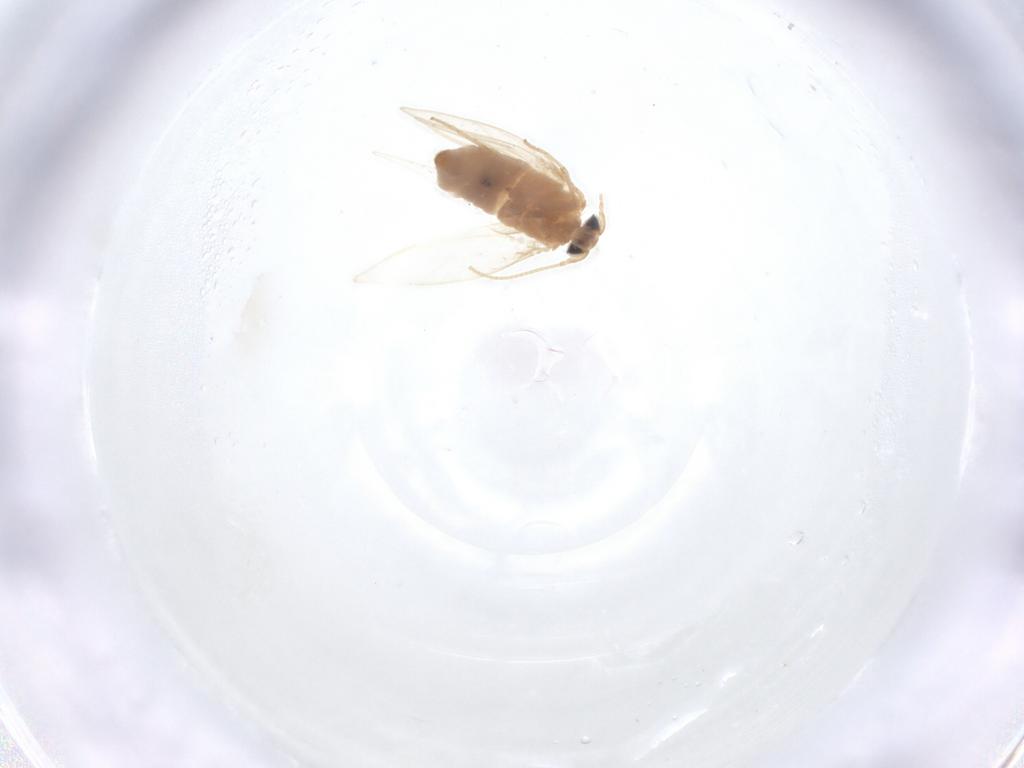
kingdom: Animalia
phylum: Arthropoda
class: Insecta
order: Lepidoptera
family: Nepticulidae
